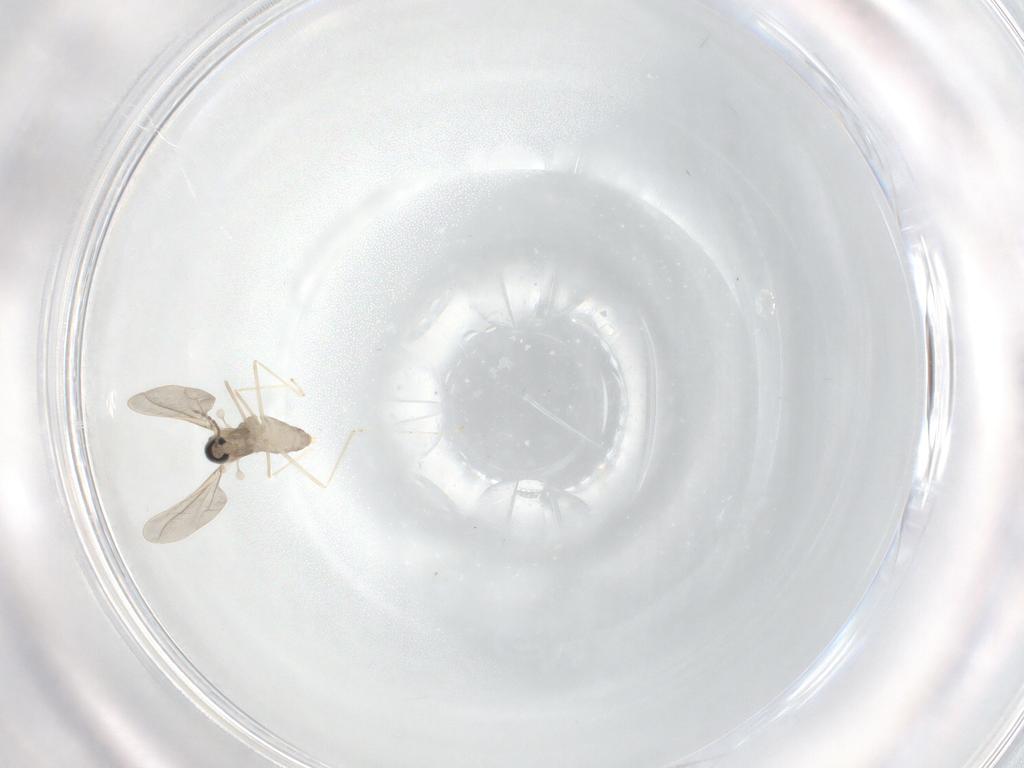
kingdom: Animalia
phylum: Arthropoda
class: Insecta
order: Diptera
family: Cecidomyiidae
